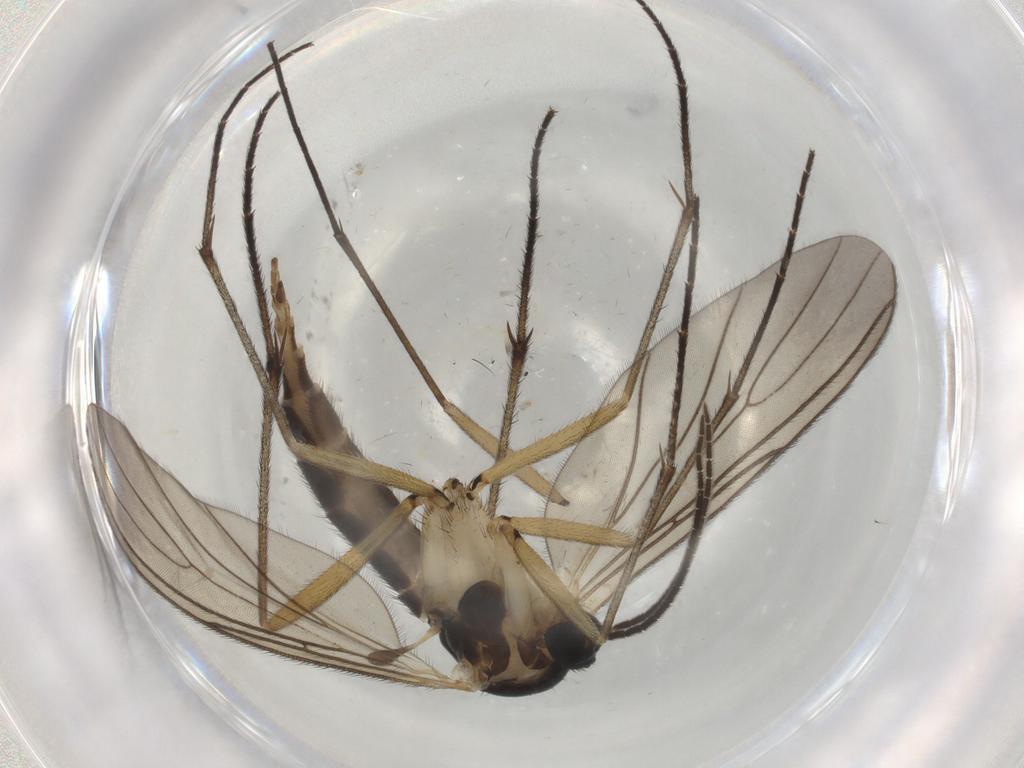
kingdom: Animalia
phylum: Arthropoda
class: Insecta
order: Diptera
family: Sciaridae
